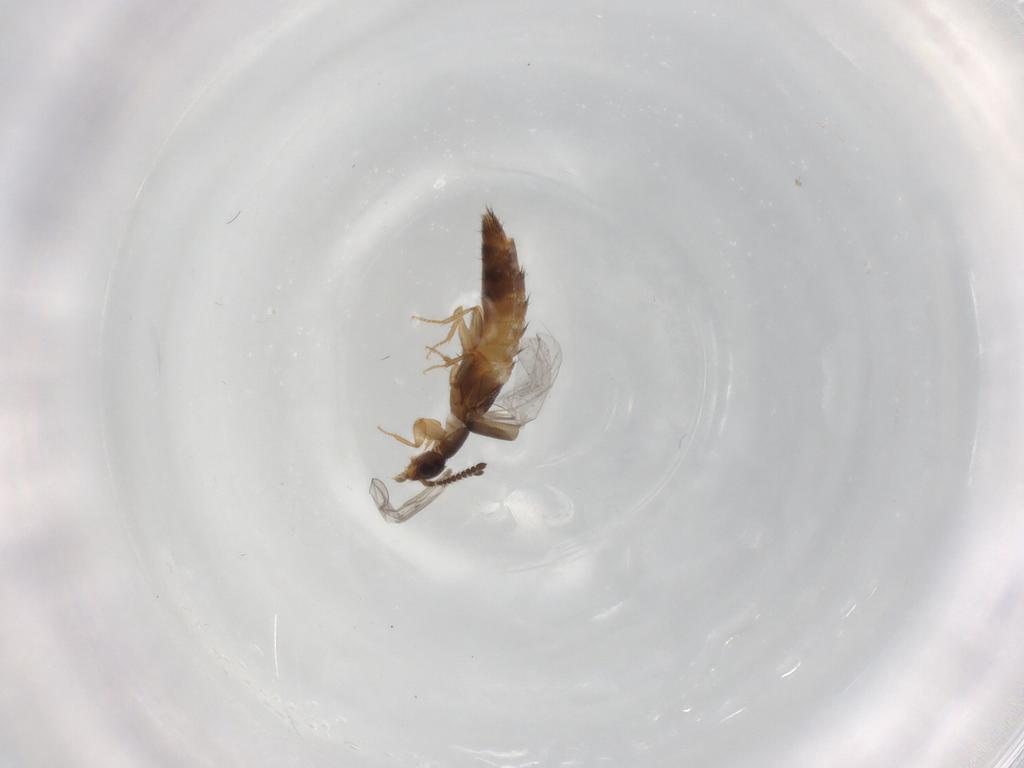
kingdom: Animalia
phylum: Arthropoda
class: Insecta
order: Coleoptera
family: Staphylinidae
